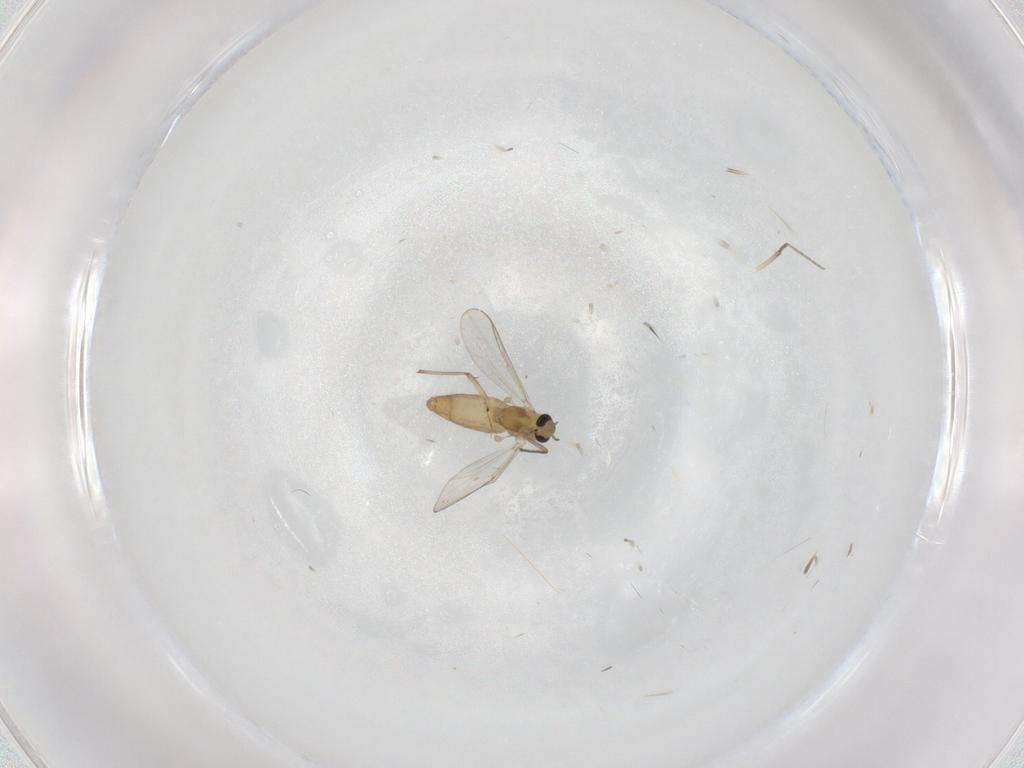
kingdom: Animalia
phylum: Arthropoda
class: Insecta
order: Diptera
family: Chironomidae
